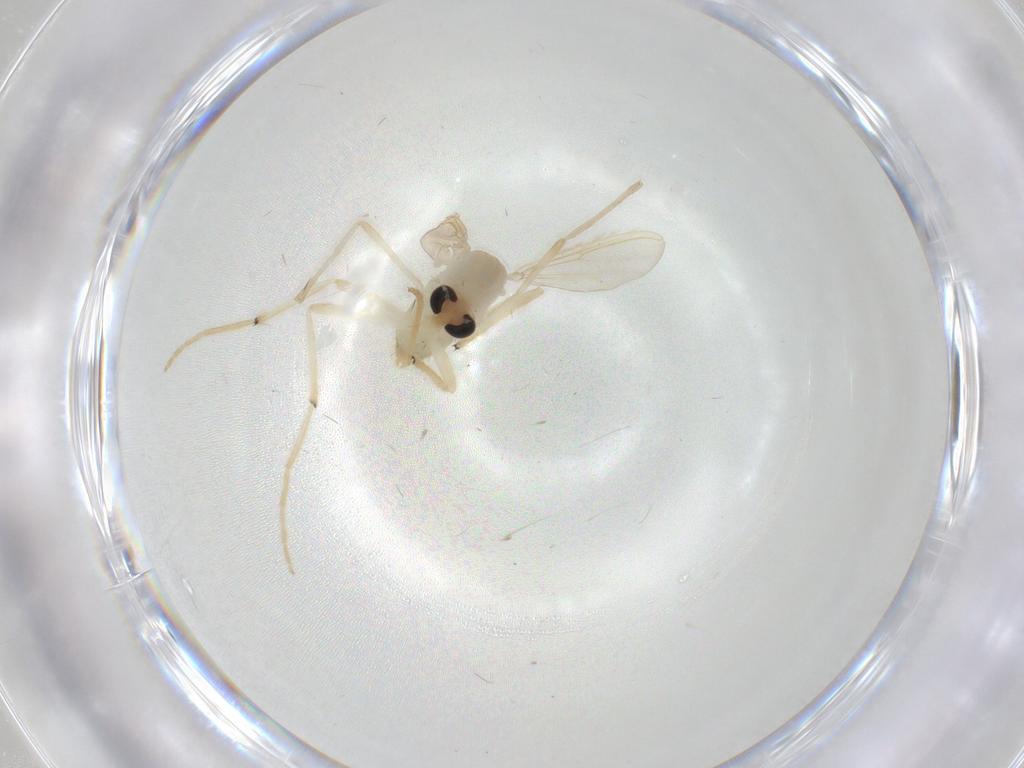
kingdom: Animalia
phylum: Arthropoda
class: Insecta
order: Diptera
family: Chironomidae
